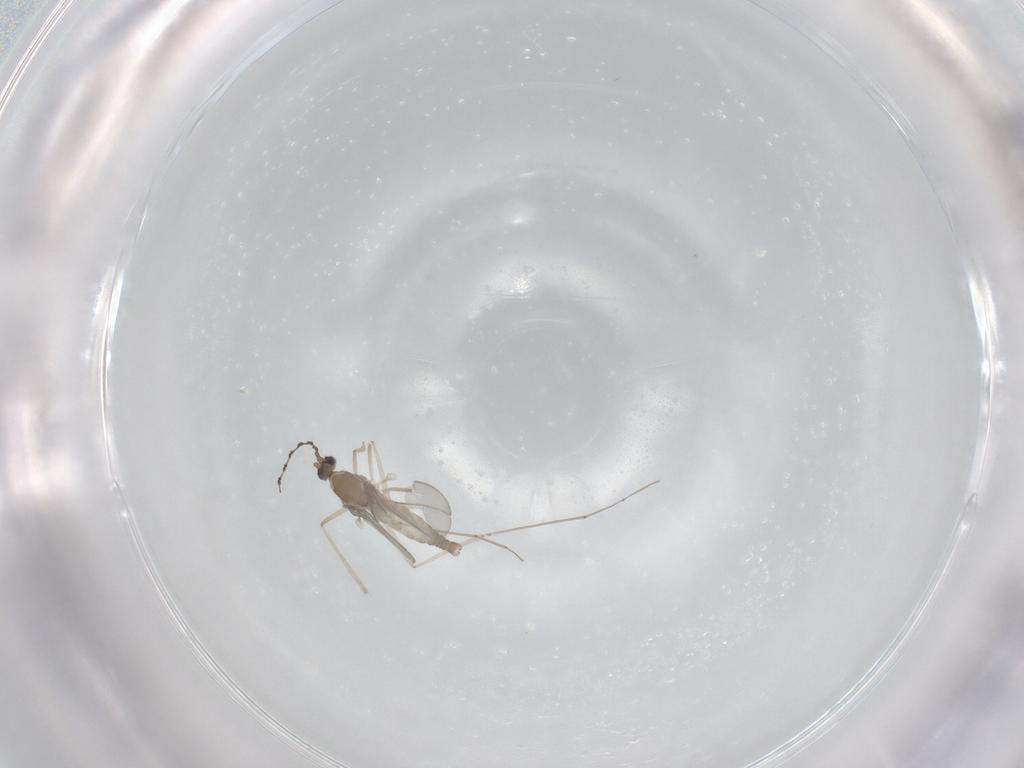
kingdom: Animalia
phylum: Arthropoda
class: Insecta
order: Diptera
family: Cecidomyiidae
